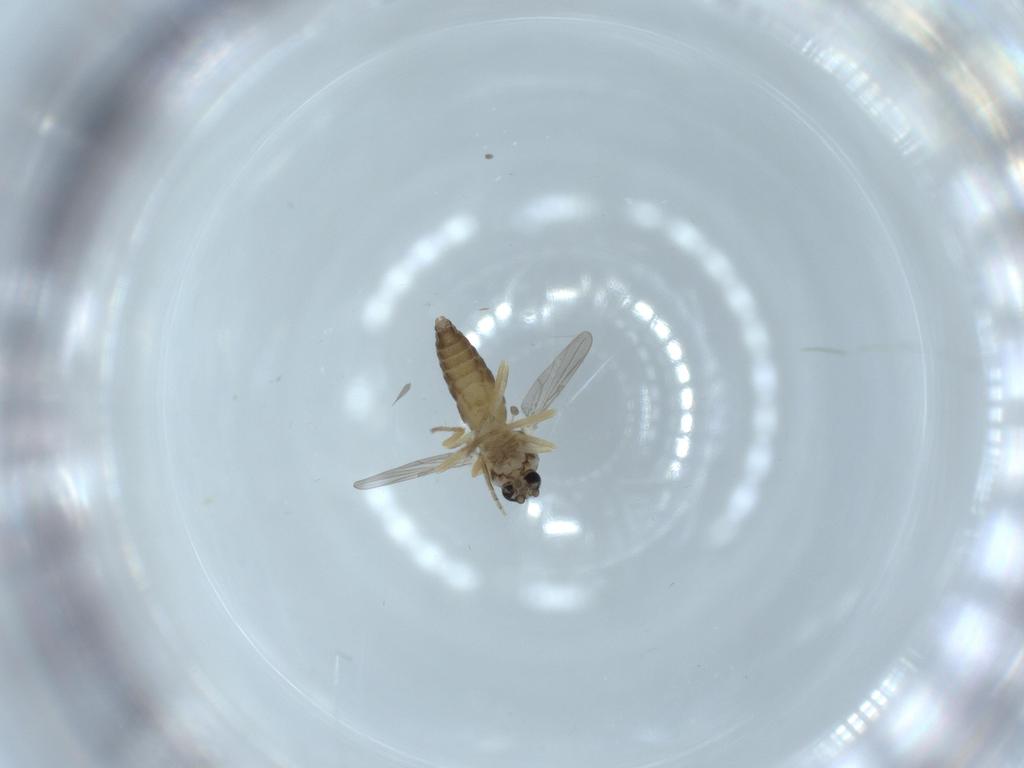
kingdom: Animalia
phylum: Arthropoda
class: Insecta
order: Diptera
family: Ceratopogonidae
